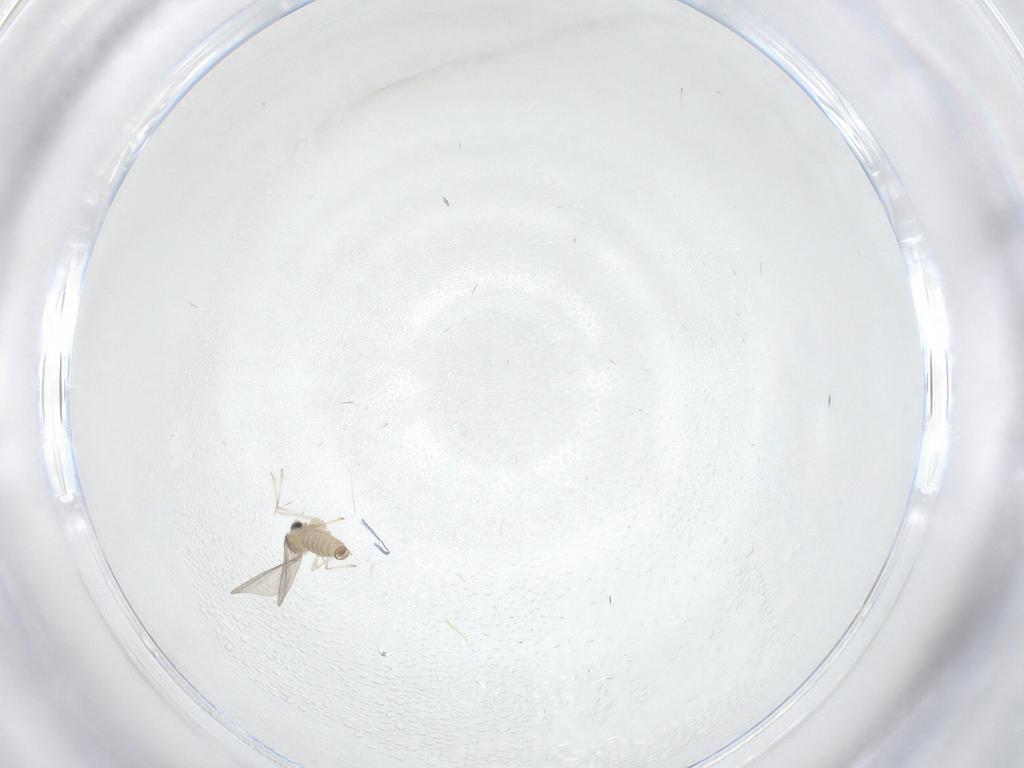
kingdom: Animalia
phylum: Arthropoda
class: Insecta
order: Diptera
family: Cecidomyiidae
